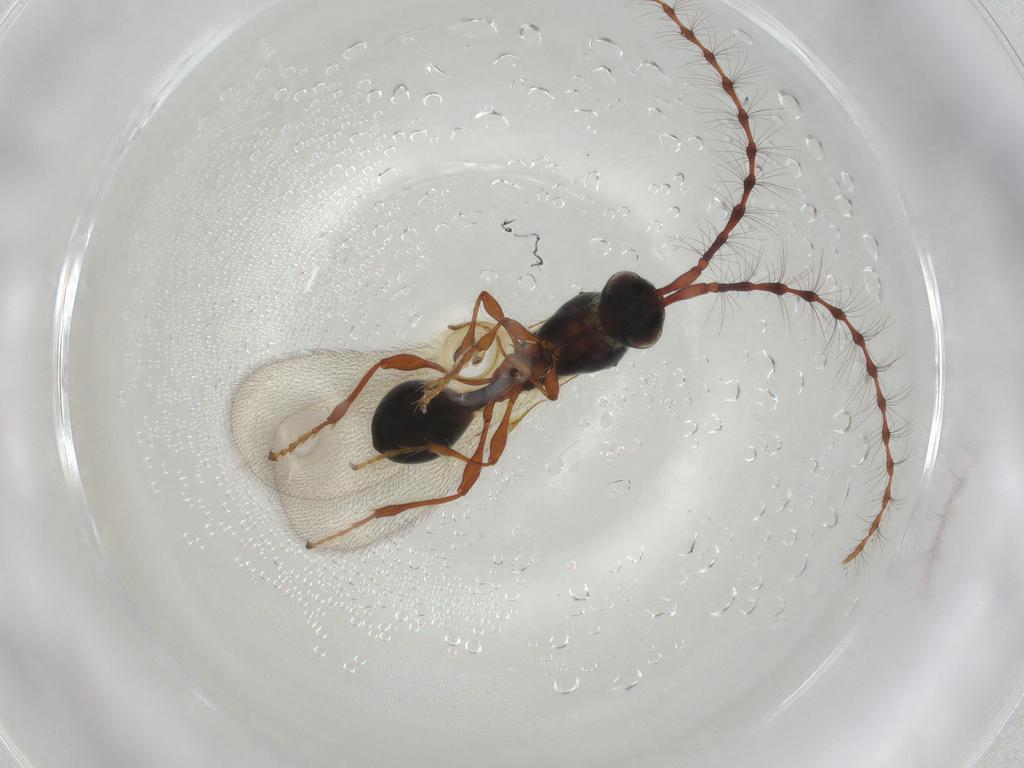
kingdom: Animalia
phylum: Arthropoda
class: Insecta
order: Hymenoptera
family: Diapriidae
